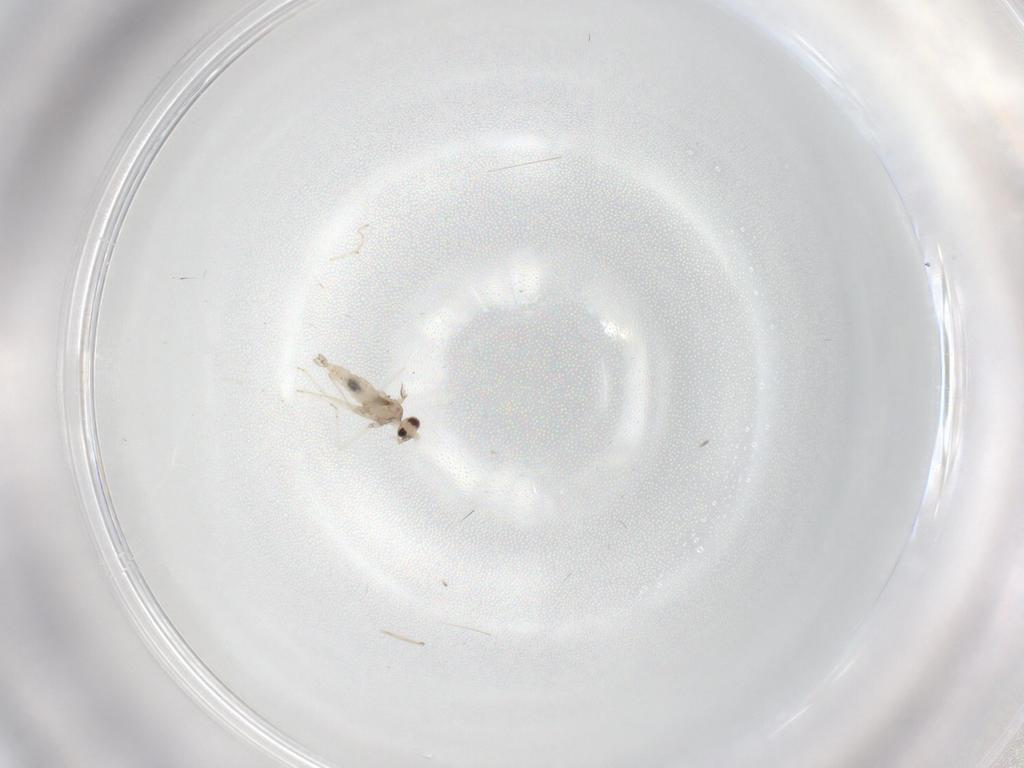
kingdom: Animalia
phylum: Arthropoda
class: Insecta
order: Diptera
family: Cecidomyiidae
